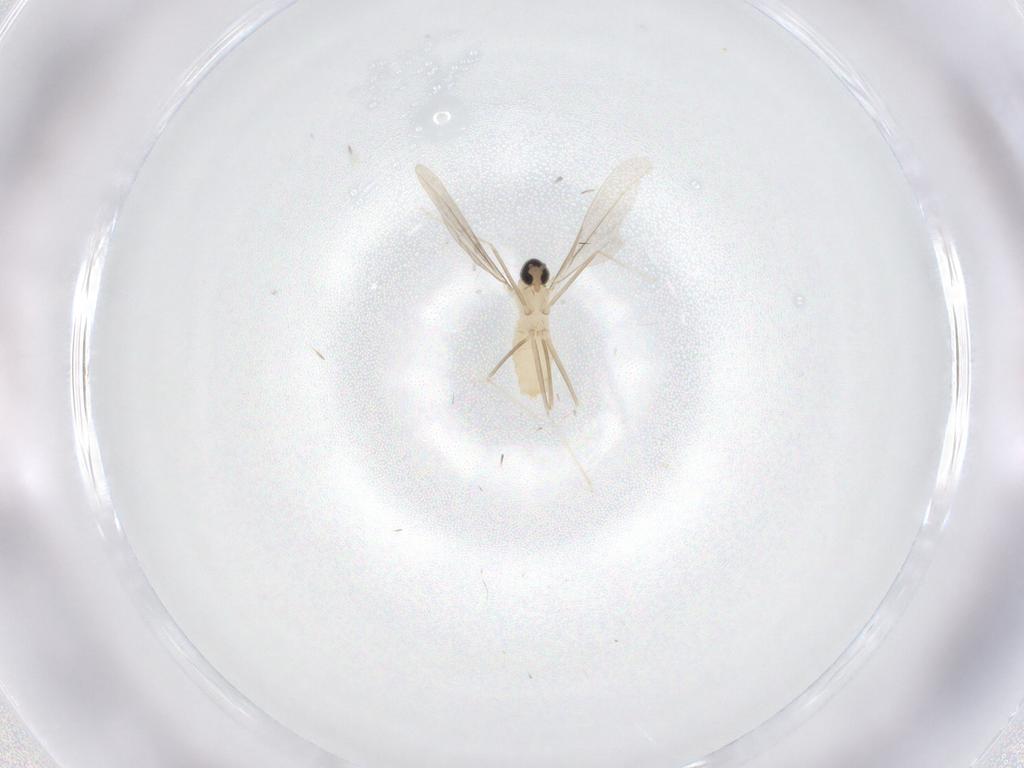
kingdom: Animalia
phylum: Arthropoda
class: Insecta
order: Diptera
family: Cecidomyiidae
